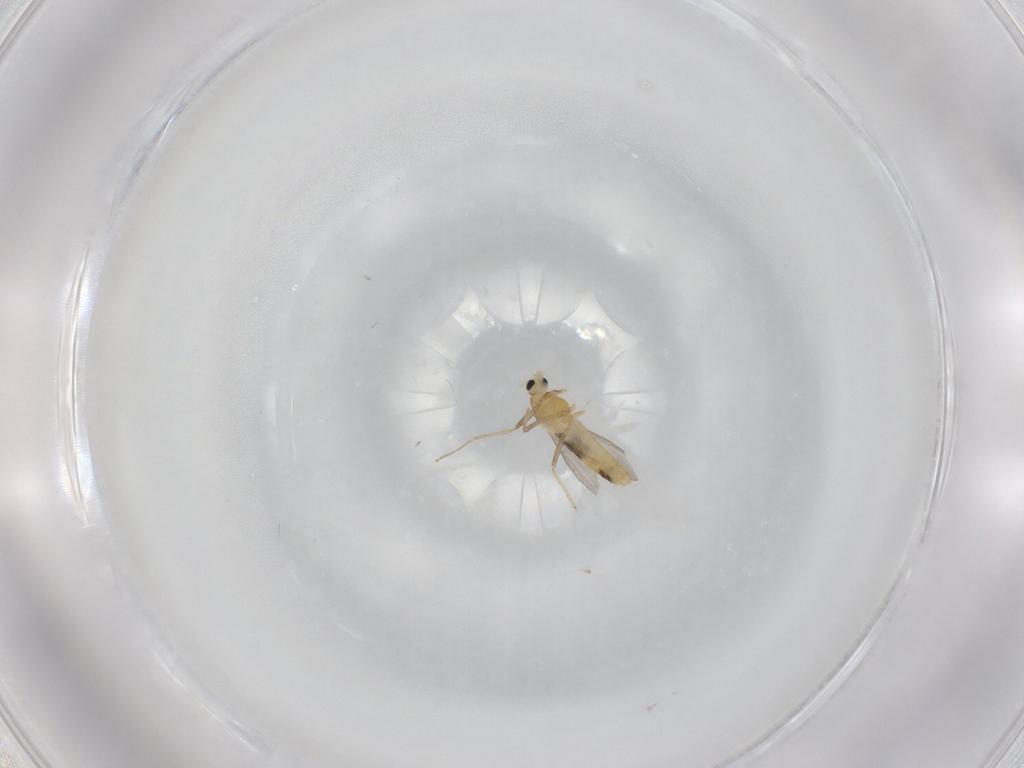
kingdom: Animalia
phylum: Arthropoda
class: Insecta
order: Diptera
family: Chironomidae
